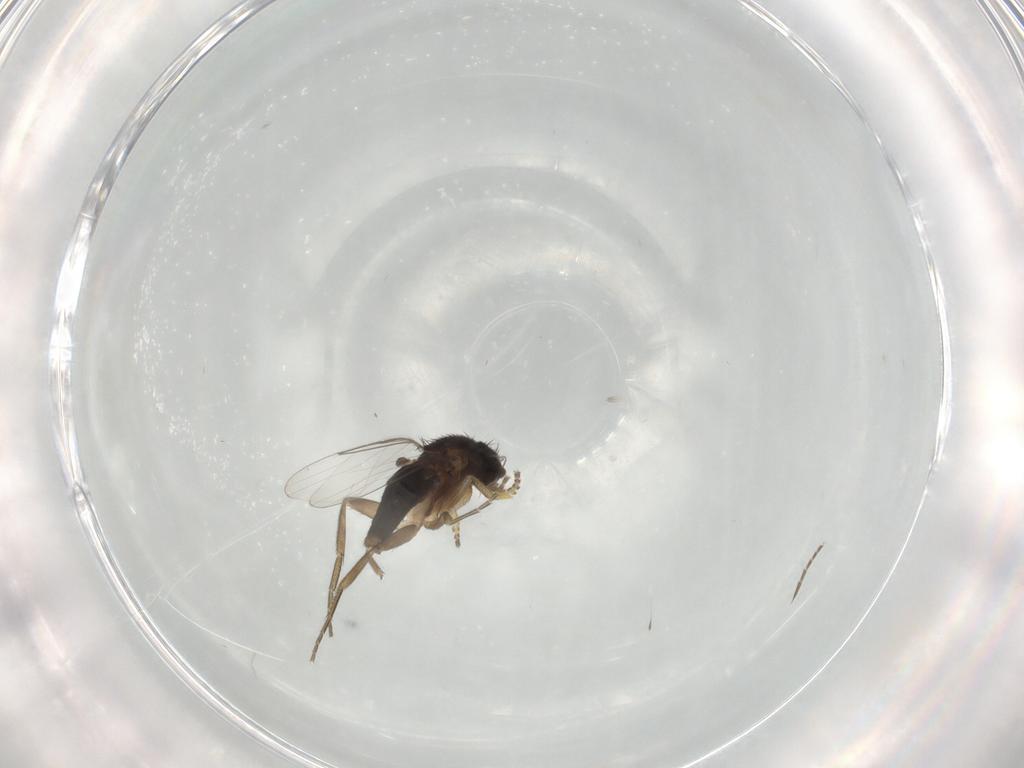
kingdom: Animalia
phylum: Arthropoda
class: Insecta
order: Diptera
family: Phoridae
